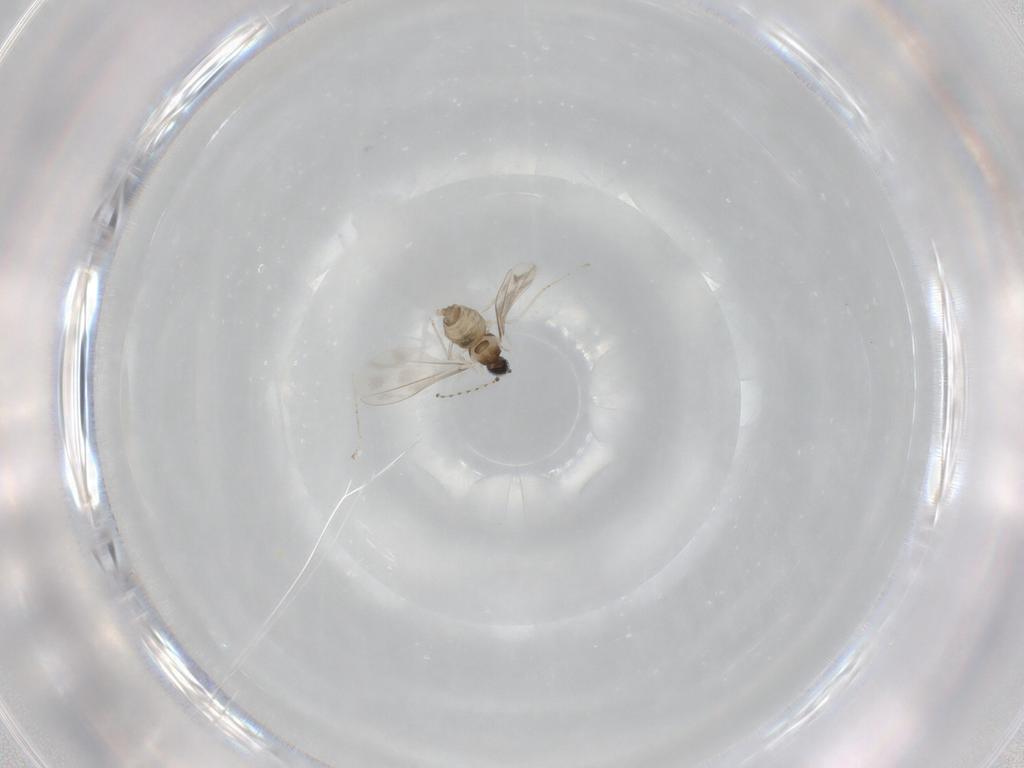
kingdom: Animalia
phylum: Arthropoda
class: Insecta
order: Diptera
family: Cecidomyiidae
